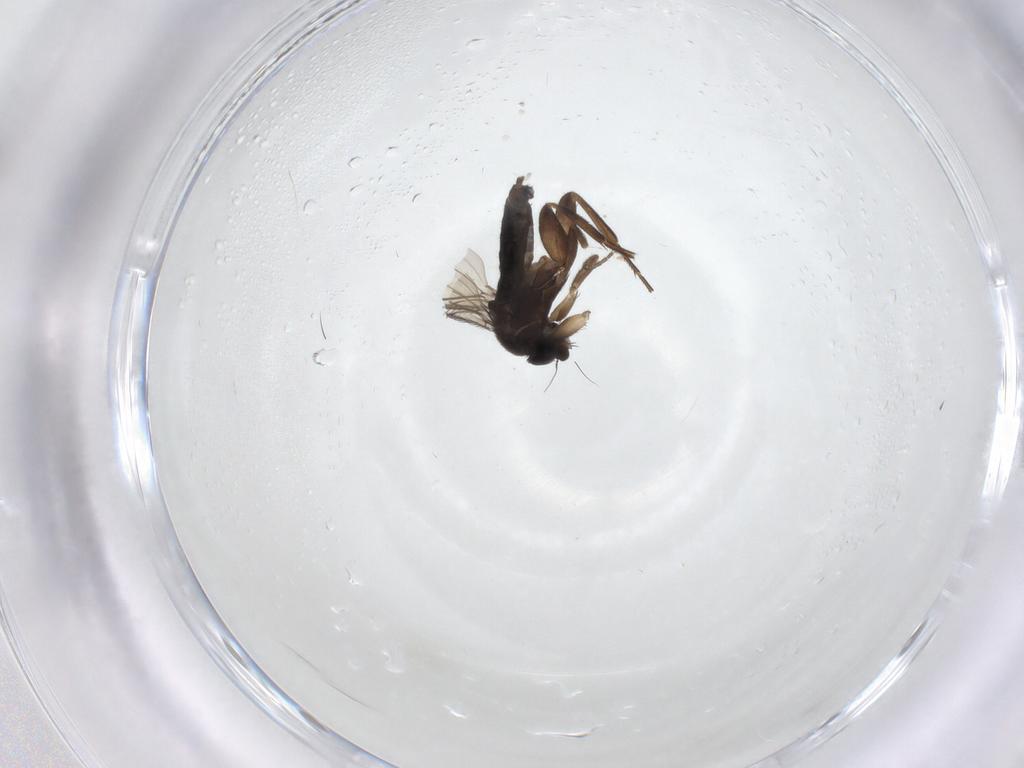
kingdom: Animalia
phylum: Arthropoda
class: Insecta
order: Diptera
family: Phoridae
